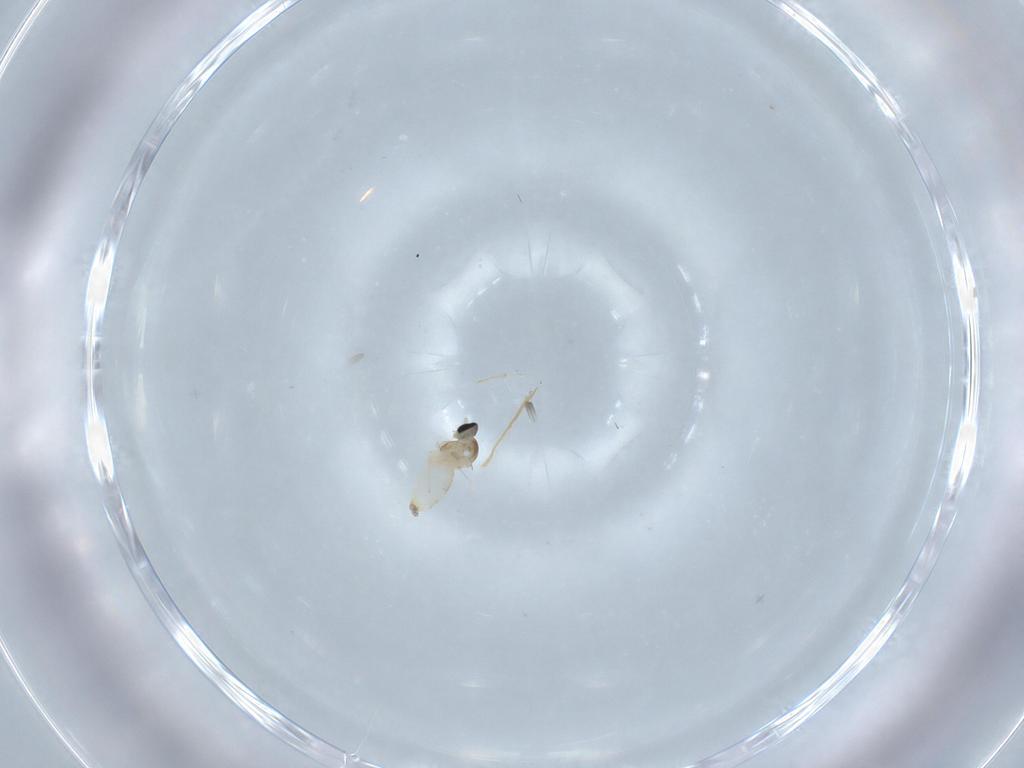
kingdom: Animalia
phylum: Arthropoda
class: Insecta
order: Diptera
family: Cecidomyiidae
